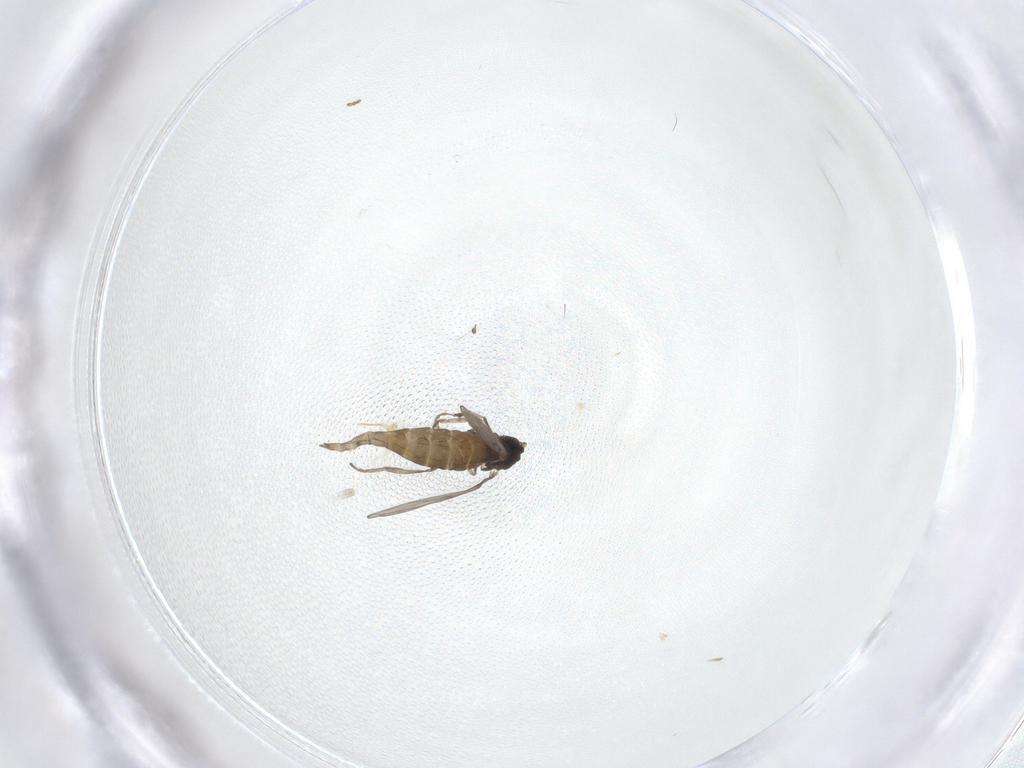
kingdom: Animalia
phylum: Arthropoda
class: Insecta
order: Diptera
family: Cecidomyiidae
